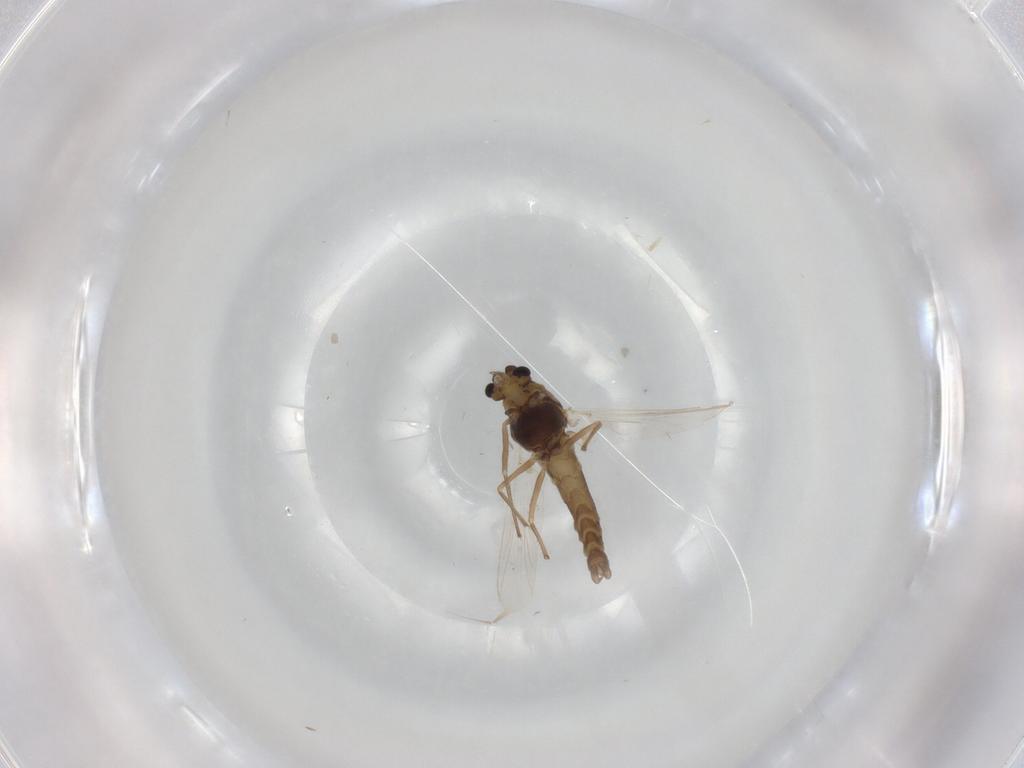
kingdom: Animalia
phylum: Arthropoda
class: Insecta
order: Diptera
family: Chironomidae
